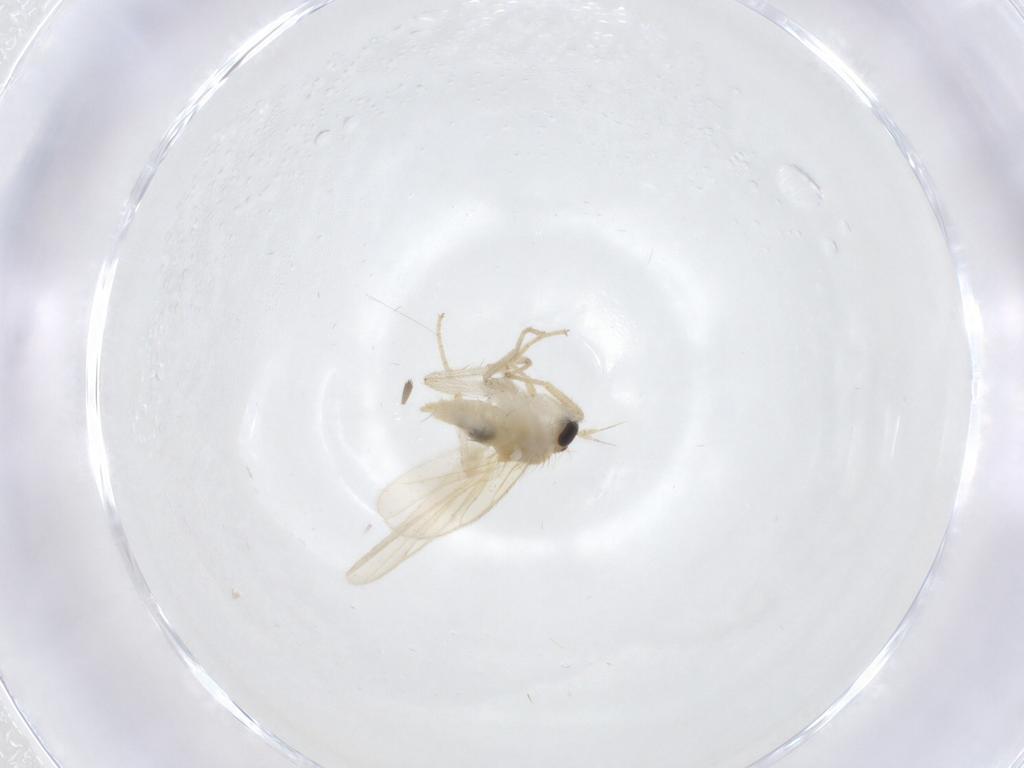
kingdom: Animalia
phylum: Arthropoda
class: Insecta
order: Diptera
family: Hybotidae
